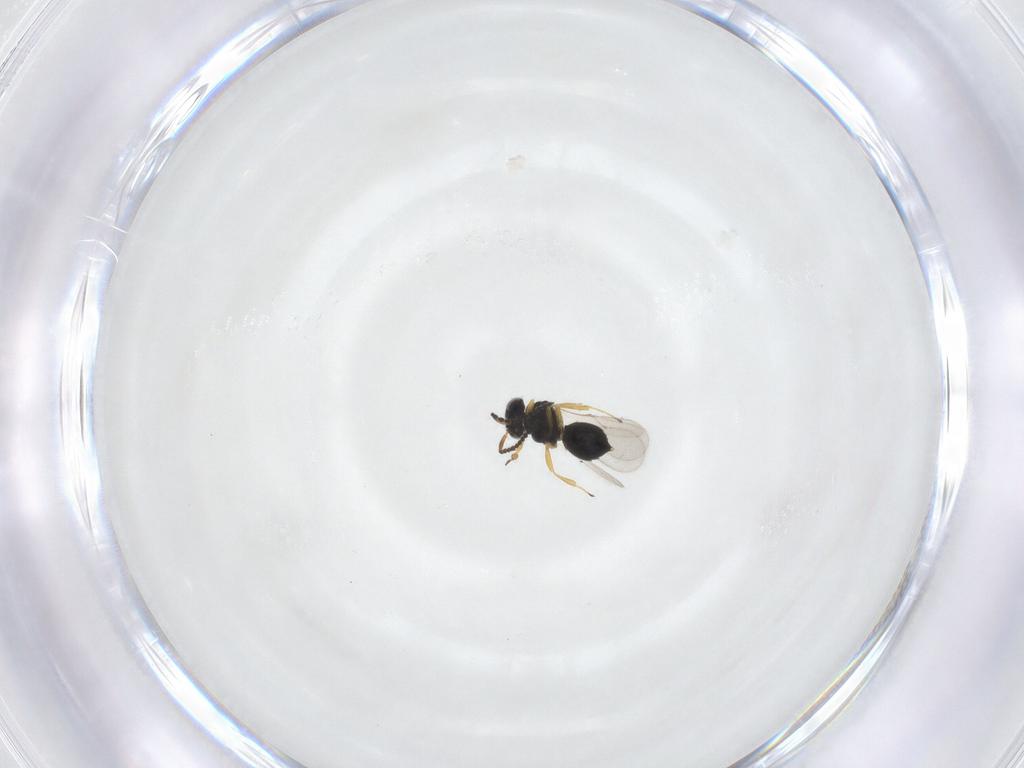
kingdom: Animalia
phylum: Arthropoda
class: Insecta
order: Hymenoptera
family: Scelionidae
